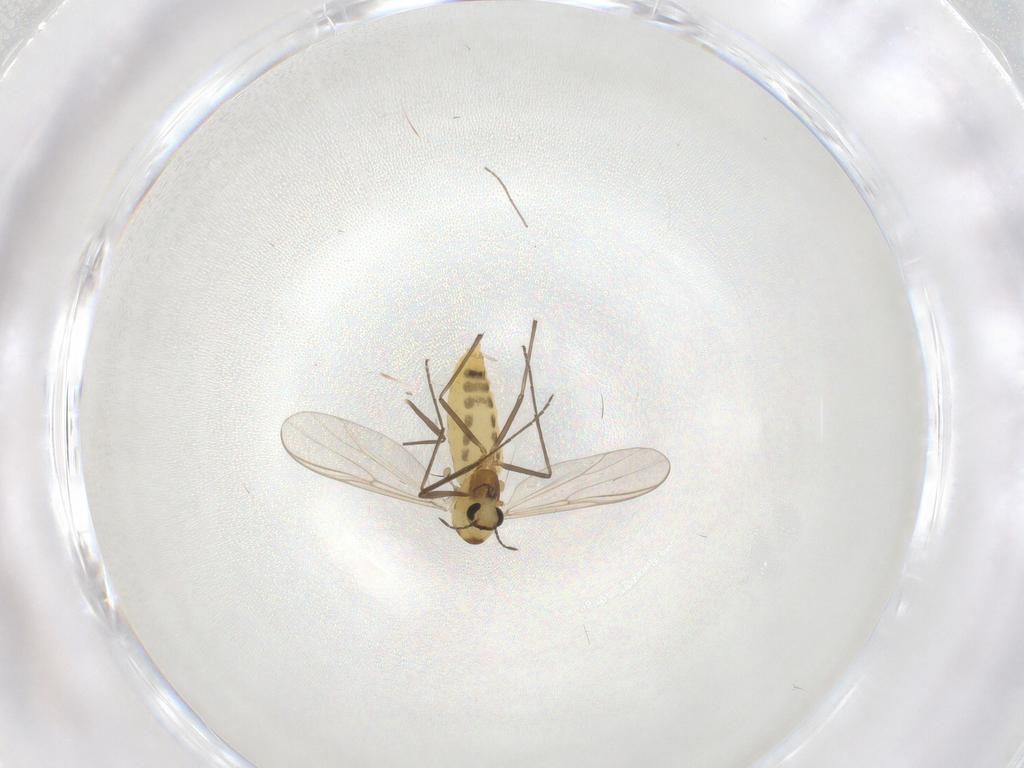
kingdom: Animalia
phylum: Arthropoda
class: Insecta
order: Diptera
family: Chironomidae
